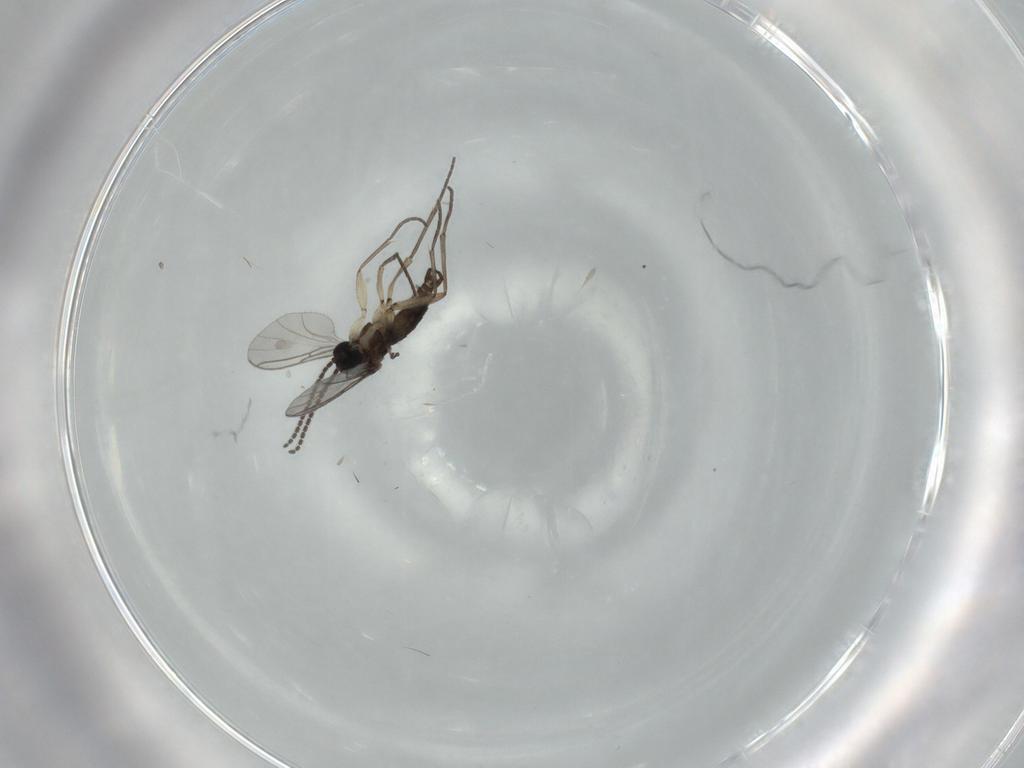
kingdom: Animalia
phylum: Arthropoda
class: Insecta
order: Diptera
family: Sciaridae
